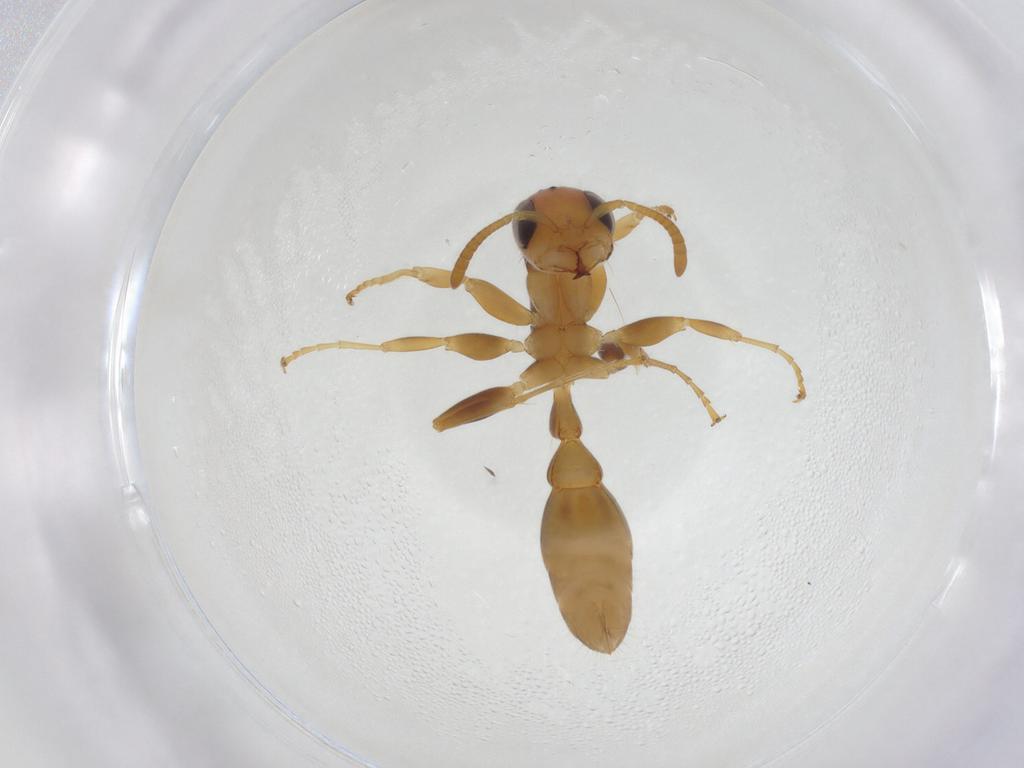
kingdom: Animalia
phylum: Arthropoda
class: Insecta
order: Hymenoptera
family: Formicidae
